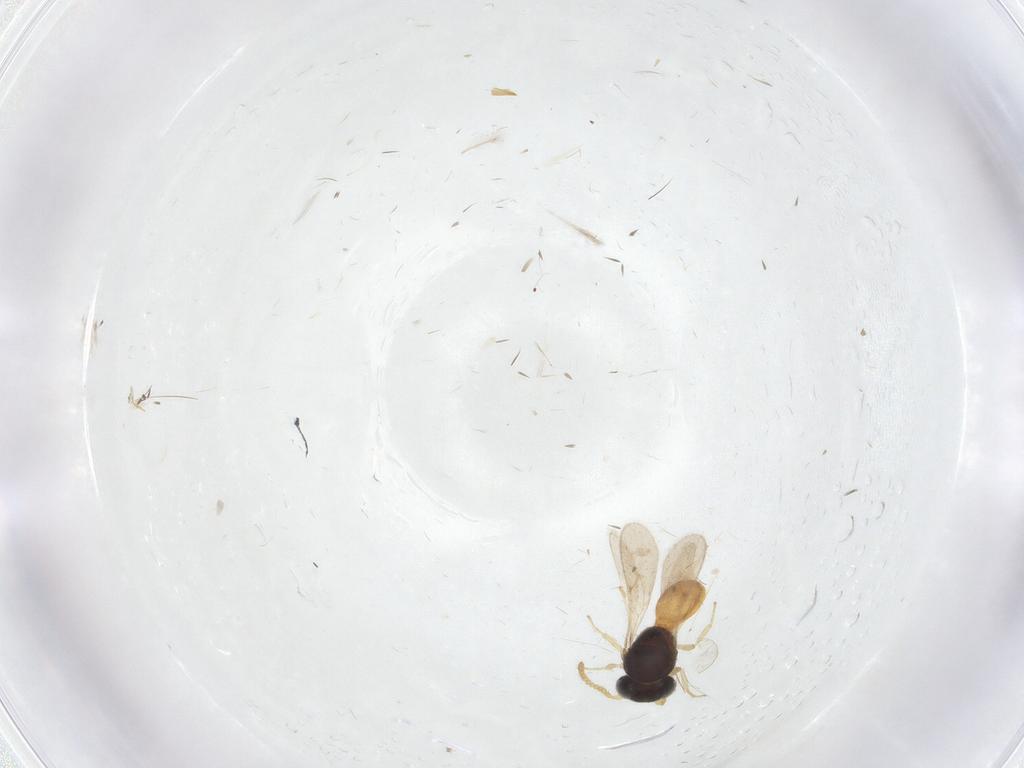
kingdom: Animalia
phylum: Arthropoda
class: Insecta
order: Hymenoptera
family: Scelionidae
